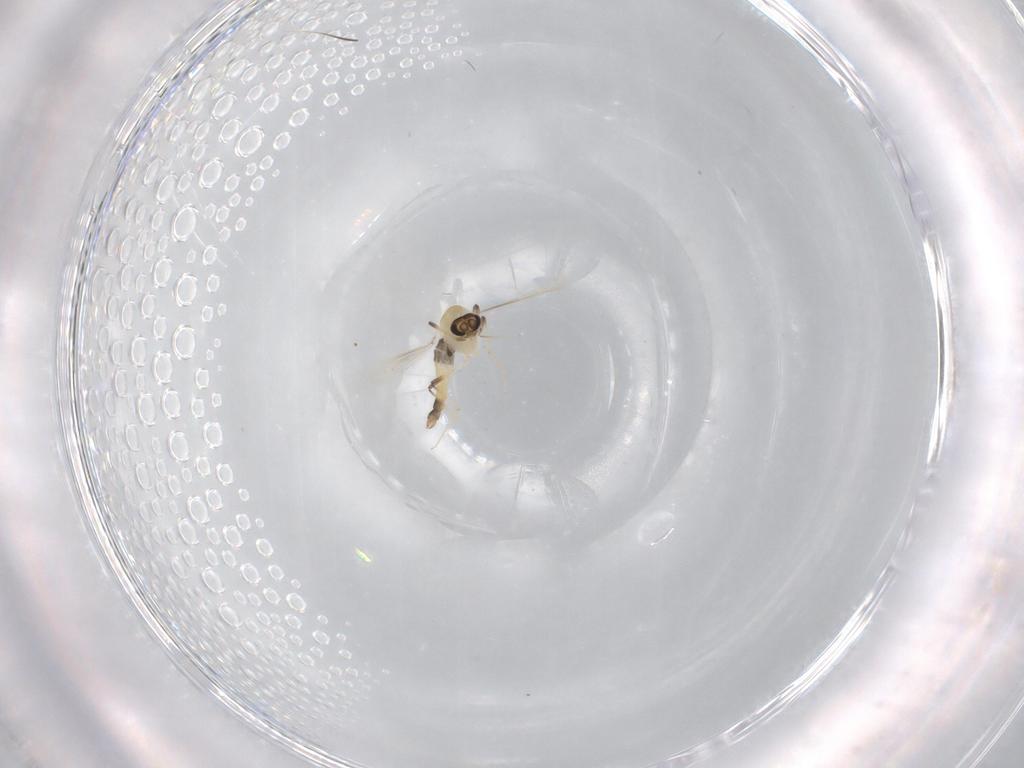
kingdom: Animalia
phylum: Arthropoda
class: Insecta
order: Diptera
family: Chironomidae
